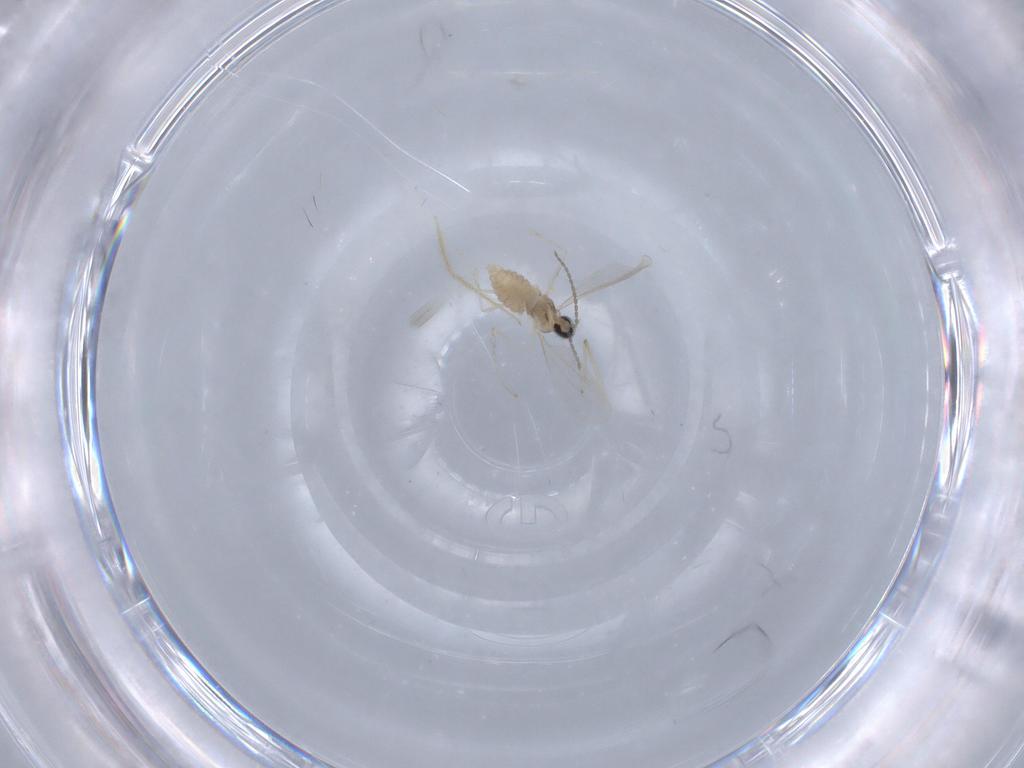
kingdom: Animalia
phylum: Arthropoda
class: Insecta
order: Diptera
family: Cecidomyiidae
